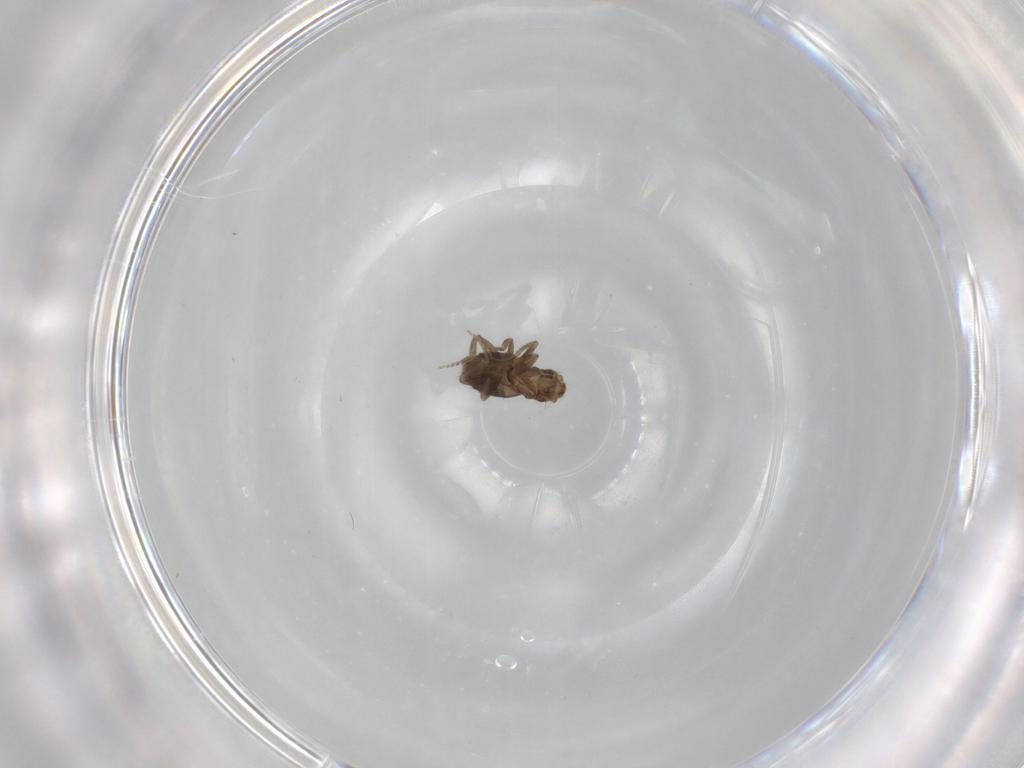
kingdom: Animalia
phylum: Arthropoda
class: Insecta
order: Diptera
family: Phoridae
